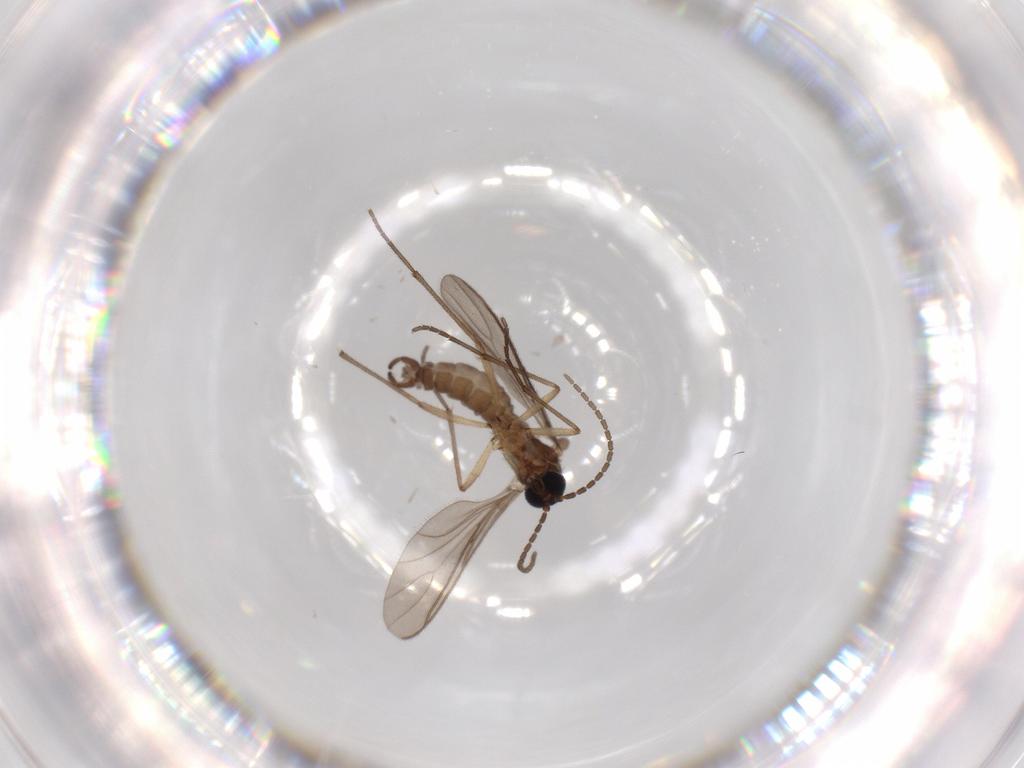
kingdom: Animalia
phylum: Arthropoda
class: Insecta
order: Diptera
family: Sciaridae
